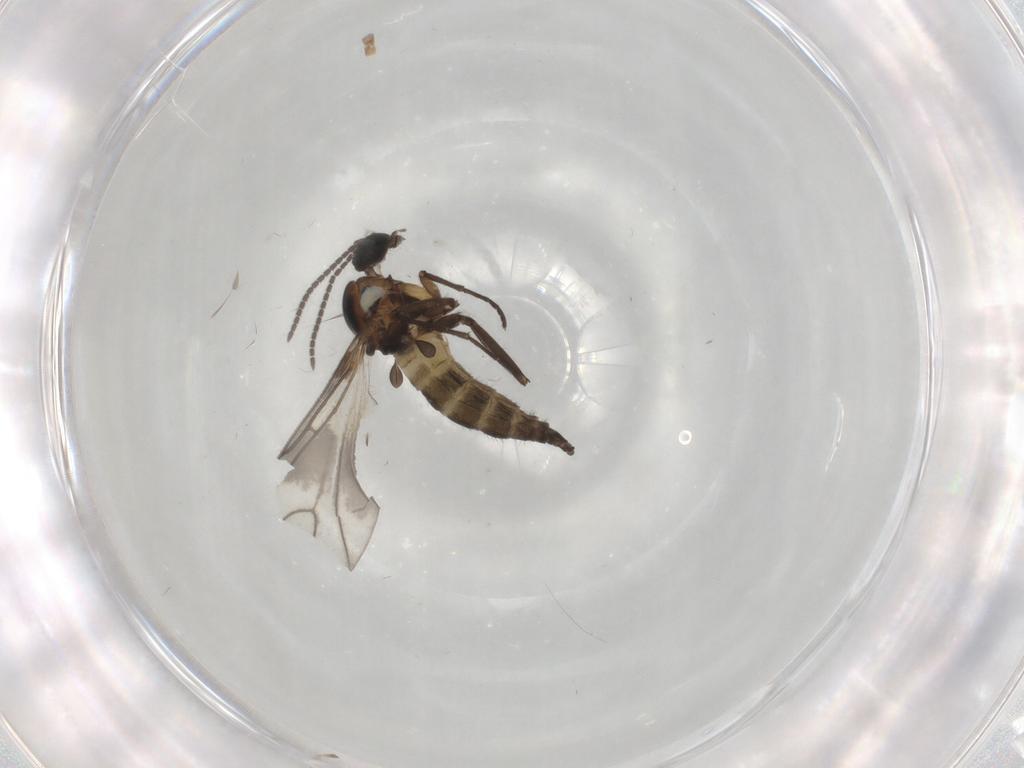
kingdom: Animalia
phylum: Arthropoda
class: Insecta
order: Diptera
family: Sciaridae
